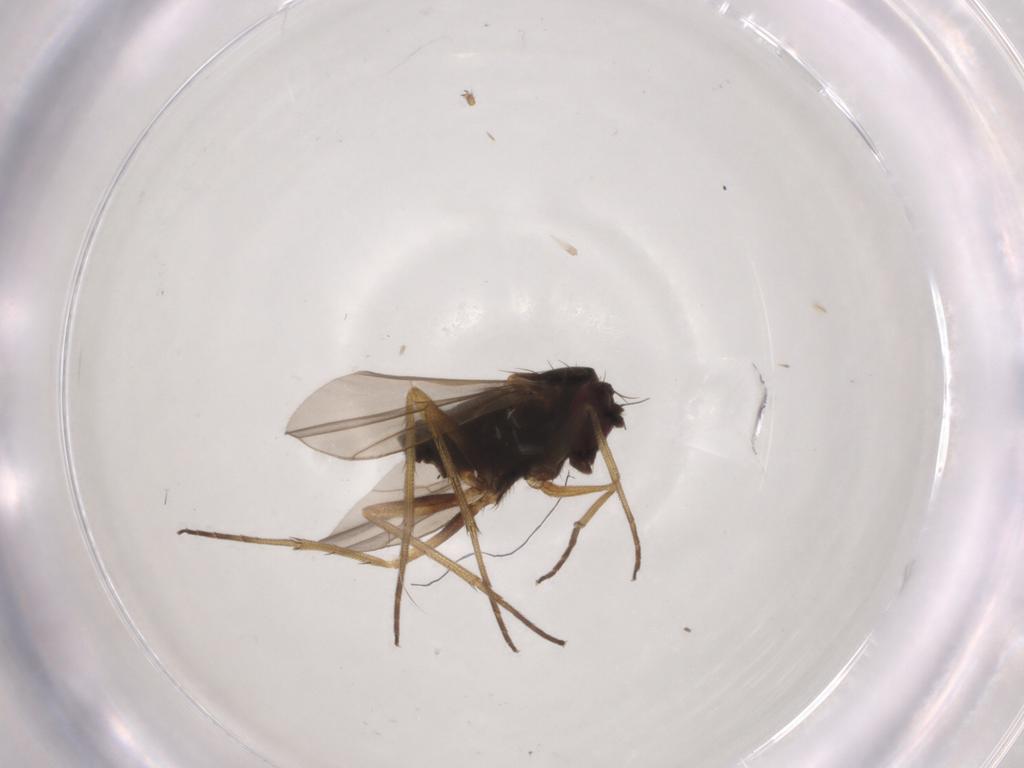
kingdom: Animalia
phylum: Arthropoda
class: Insecta
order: Diptera
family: Dolichopodidae
